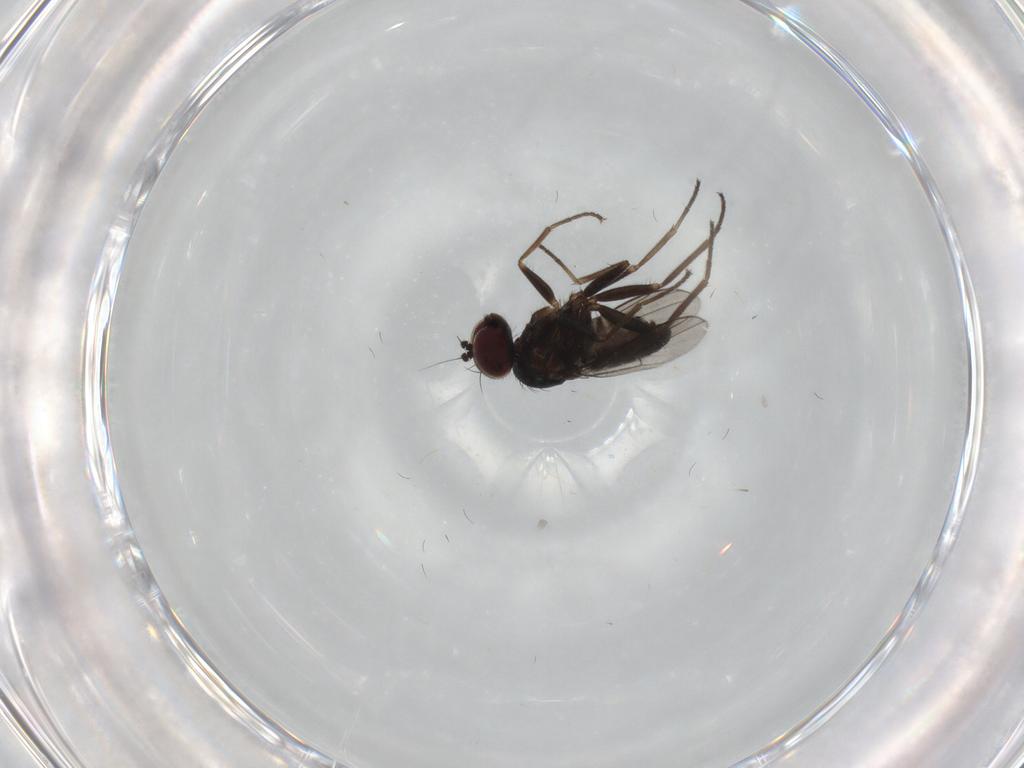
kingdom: Animalia
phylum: Arthropoda
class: Insecta
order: Diptera
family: Dolichopodidae
